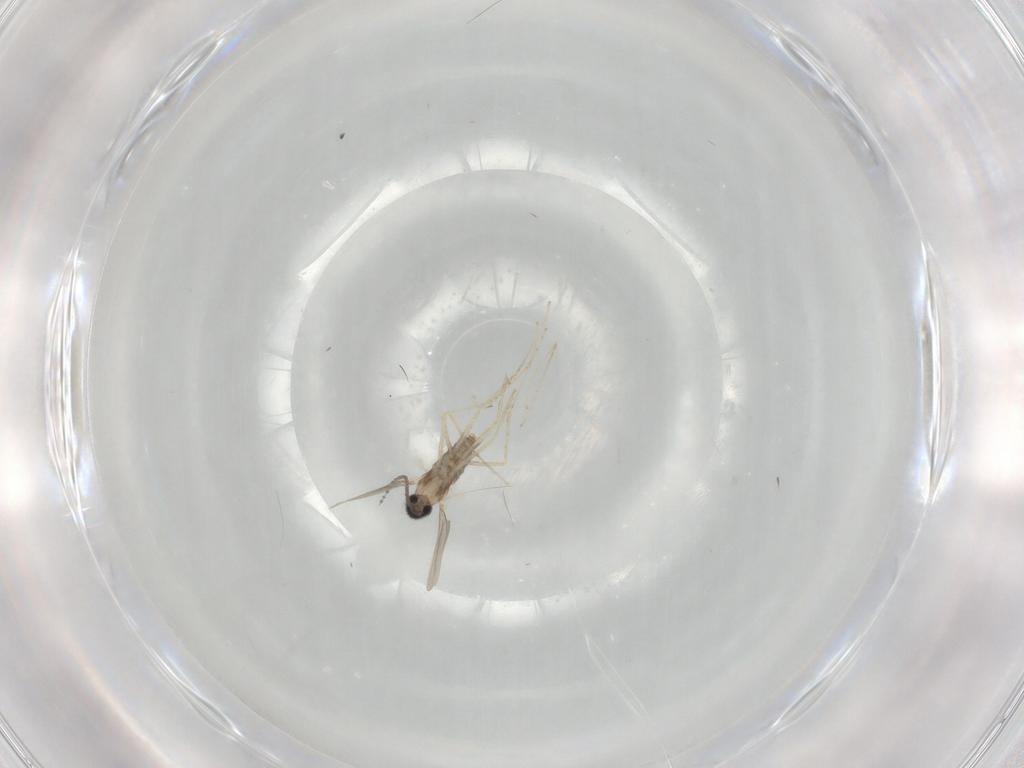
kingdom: Animalia
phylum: Arthropoda
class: Insecta
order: Diptera
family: Cecidomyiidae
